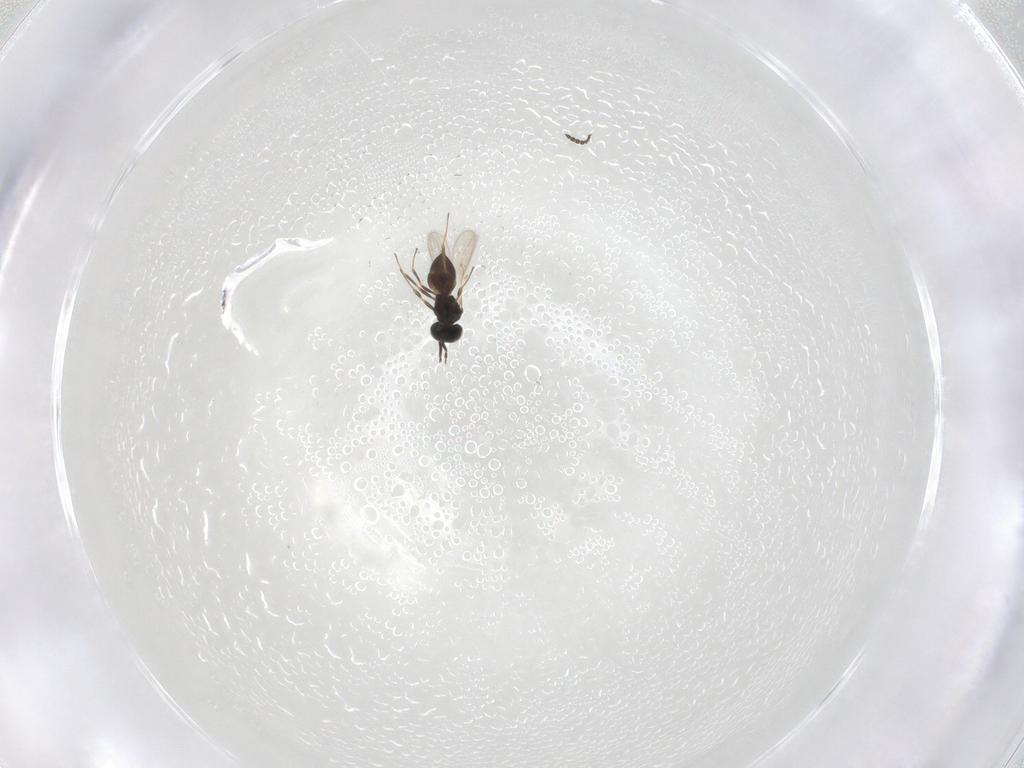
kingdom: Animalia
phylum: Arthropoda
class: Insecta
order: Hymenoptera
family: Scelionidae
